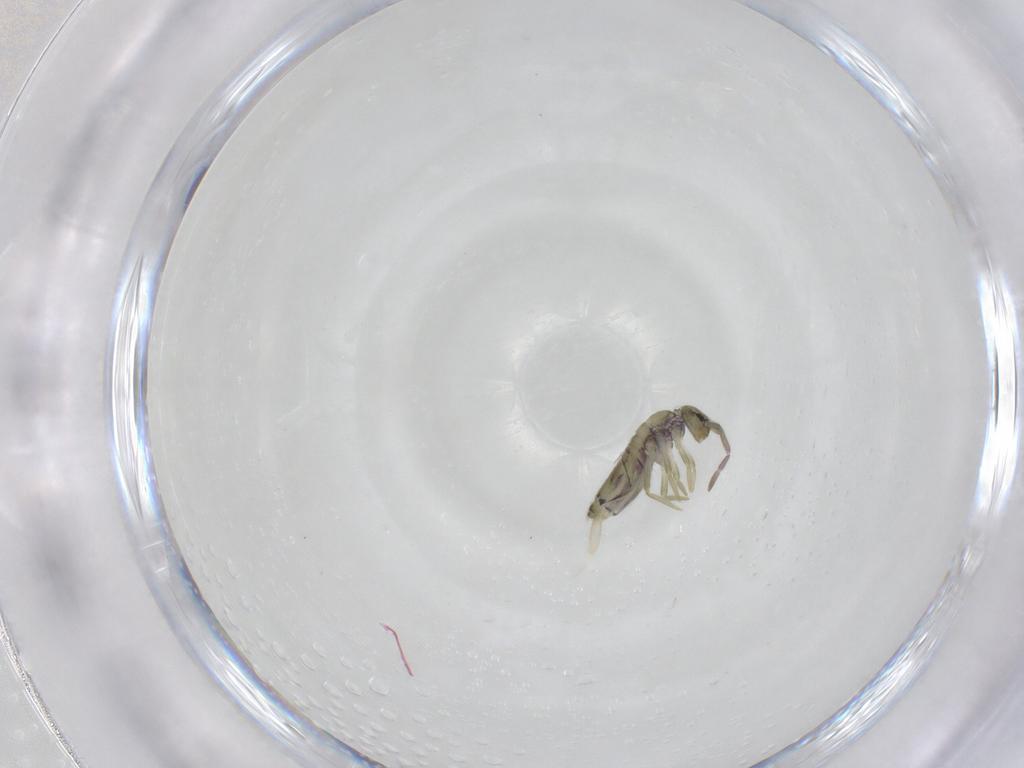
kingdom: Animalia
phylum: Arthropoda
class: Collembola
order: Entomobryomorpha
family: Entomobryidae
